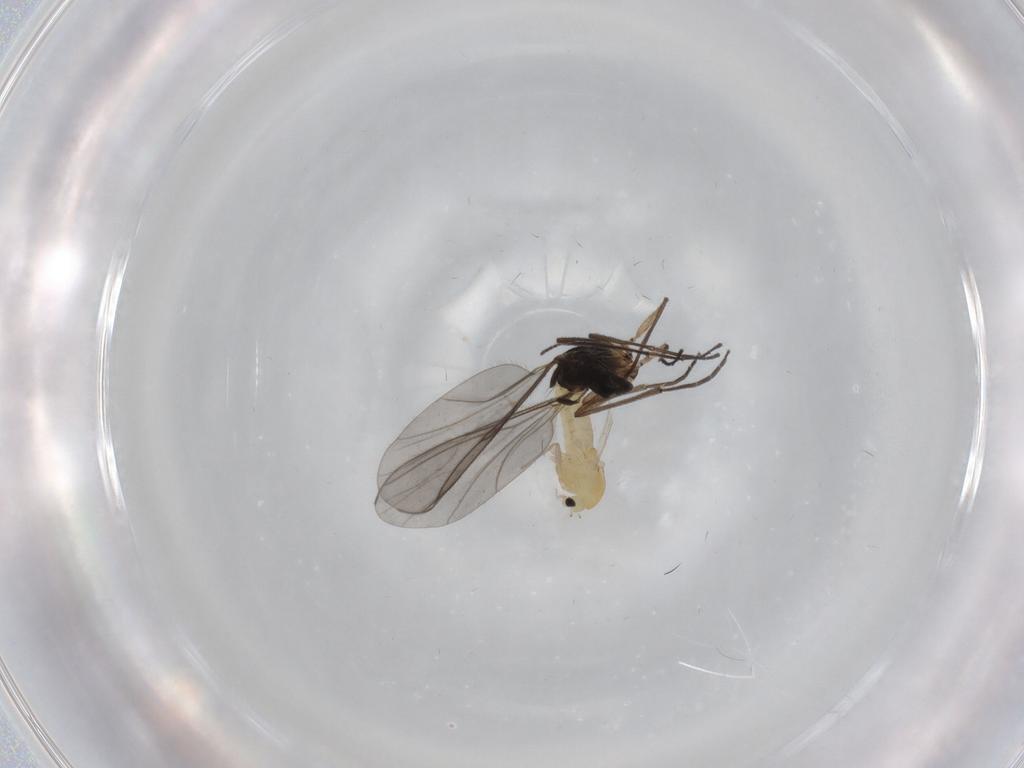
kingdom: Animalia
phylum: Arthropoda
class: Insecta
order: Diptera
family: Chironomidae
